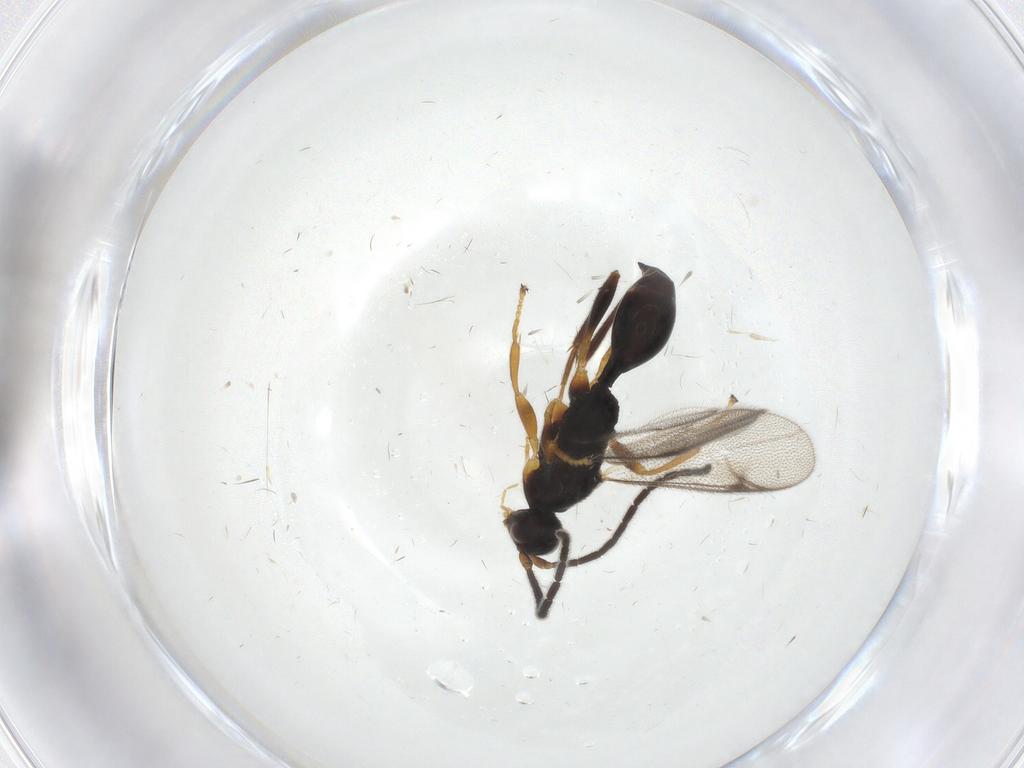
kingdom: Animalia
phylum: Arthropoda
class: Insecta
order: Hymenoptera
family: Proctotrupidae
